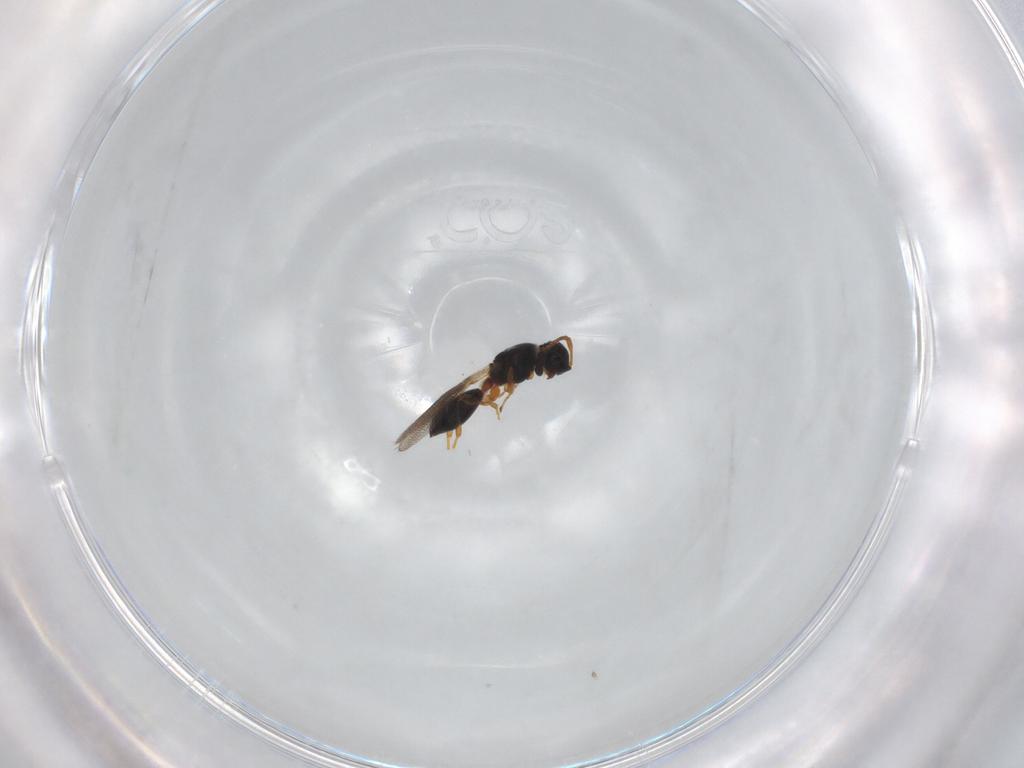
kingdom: Animalia
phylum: Arthropoda
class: Insecta
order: Hymenoptera
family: Diapriidae
